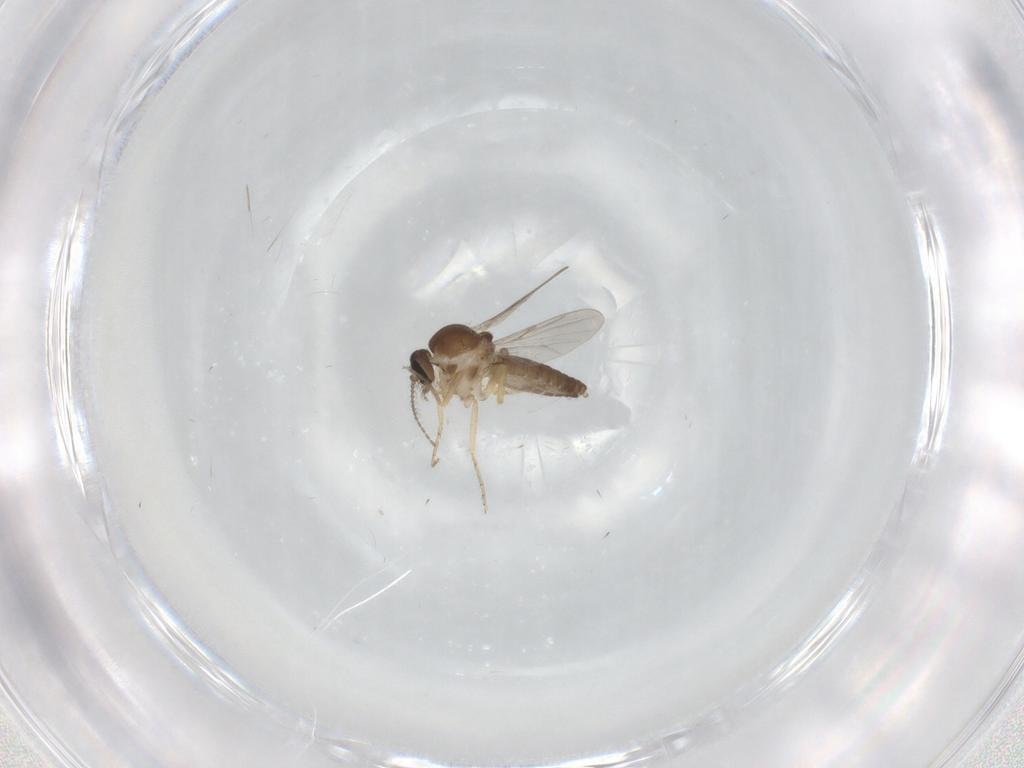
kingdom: Animalia
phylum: Arthropoda
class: Insecta
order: Diptera
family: Ceratopogonidae
